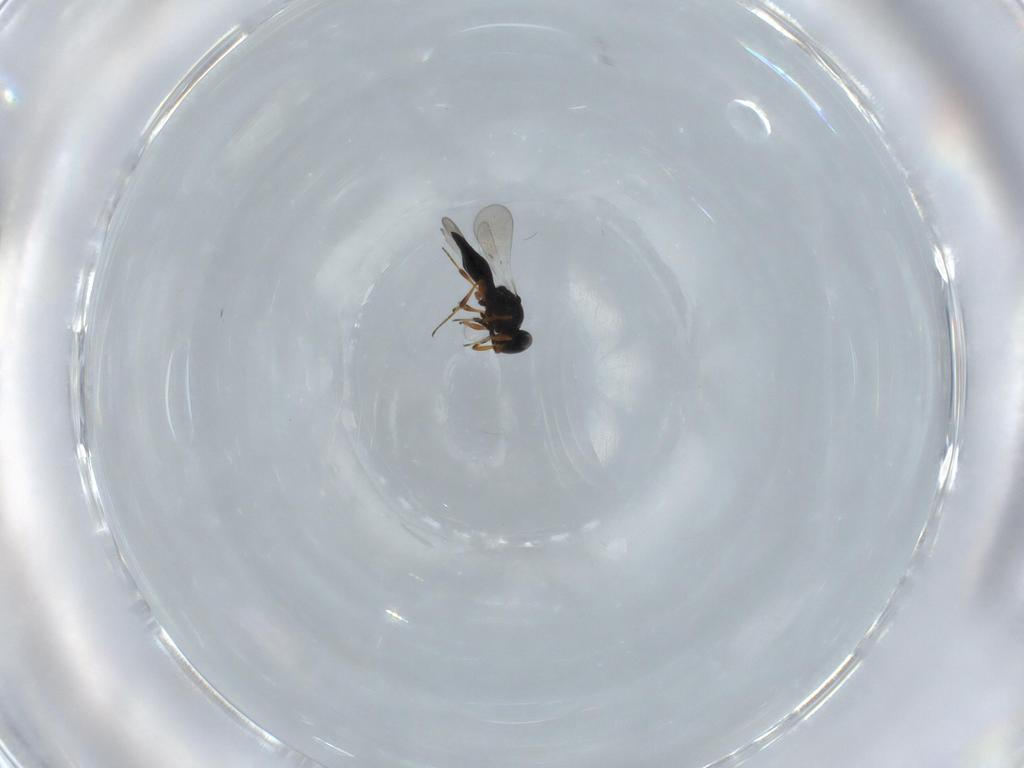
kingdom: Animalia
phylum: Arthropoda
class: Insecta
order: Hymenoptera
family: Platygastridae
